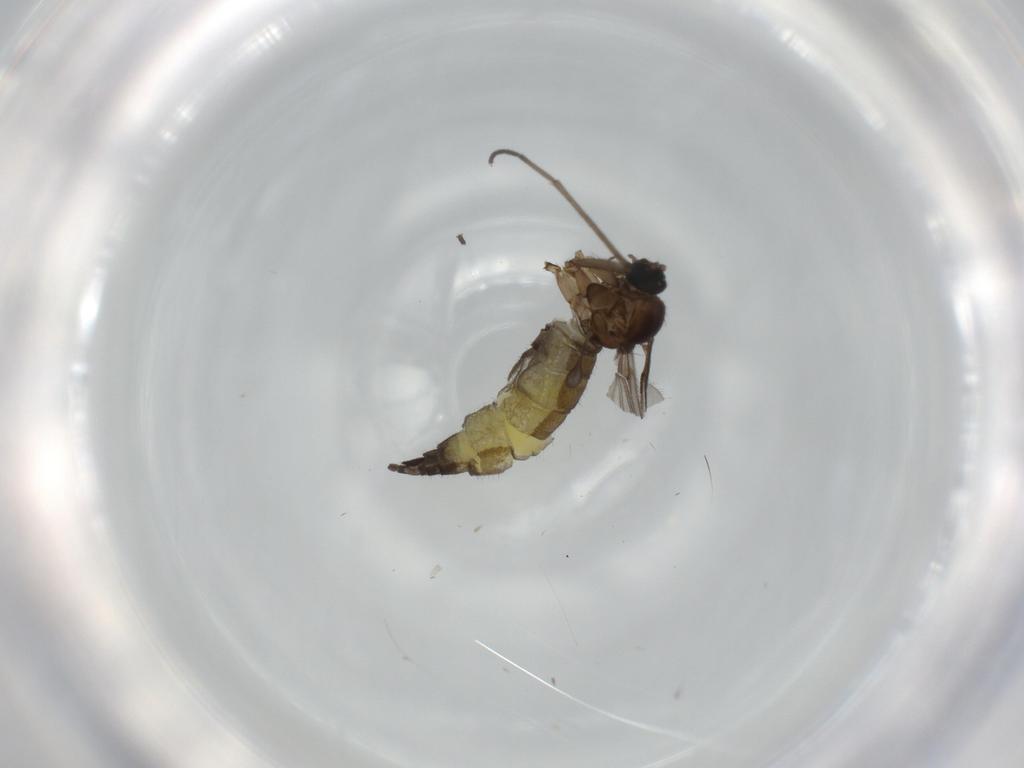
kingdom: Animalia
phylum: Arthropoda
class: Insecta
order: Diptera
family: Sciaridae
